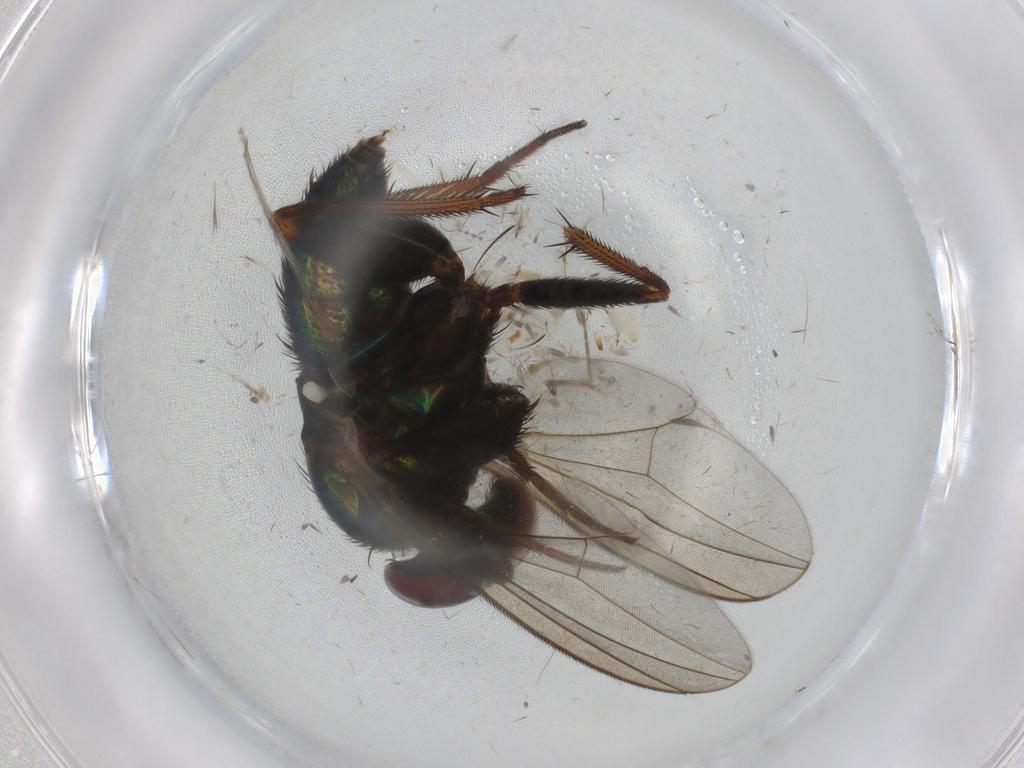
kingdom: Animalia
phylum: Arthropoda
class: Insecta
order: Diptera
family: Dolichopodidae
